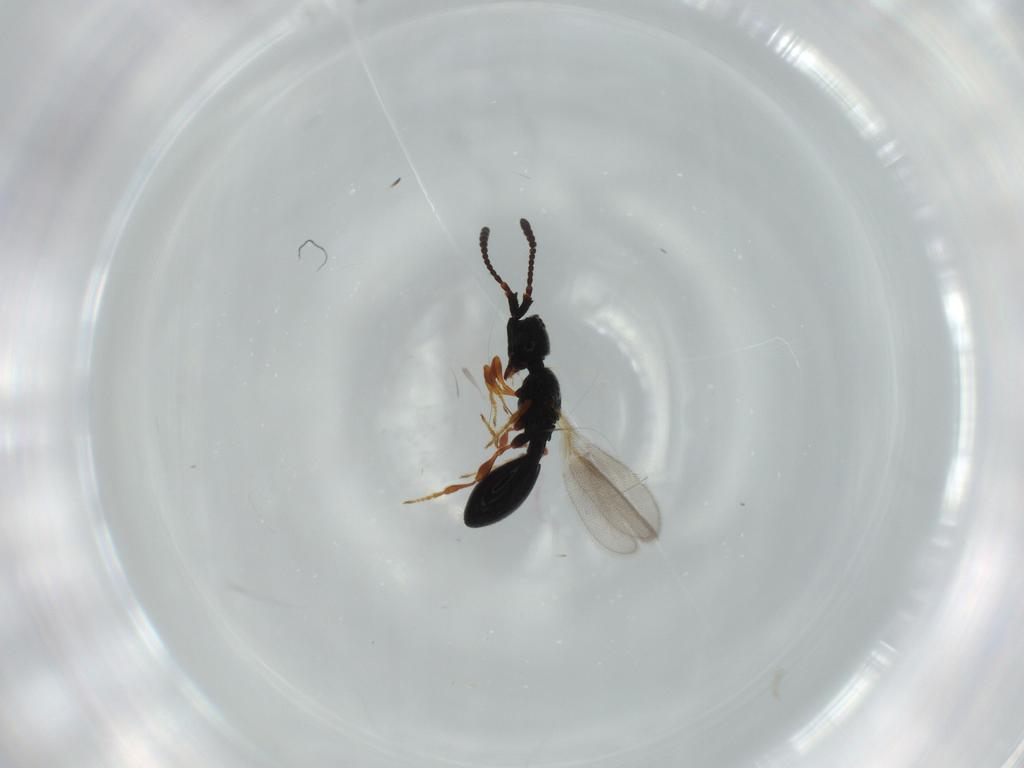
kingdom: Animalia
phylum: Arthropoda
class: Insecta
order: Hymenoptera
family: Diapriidae
